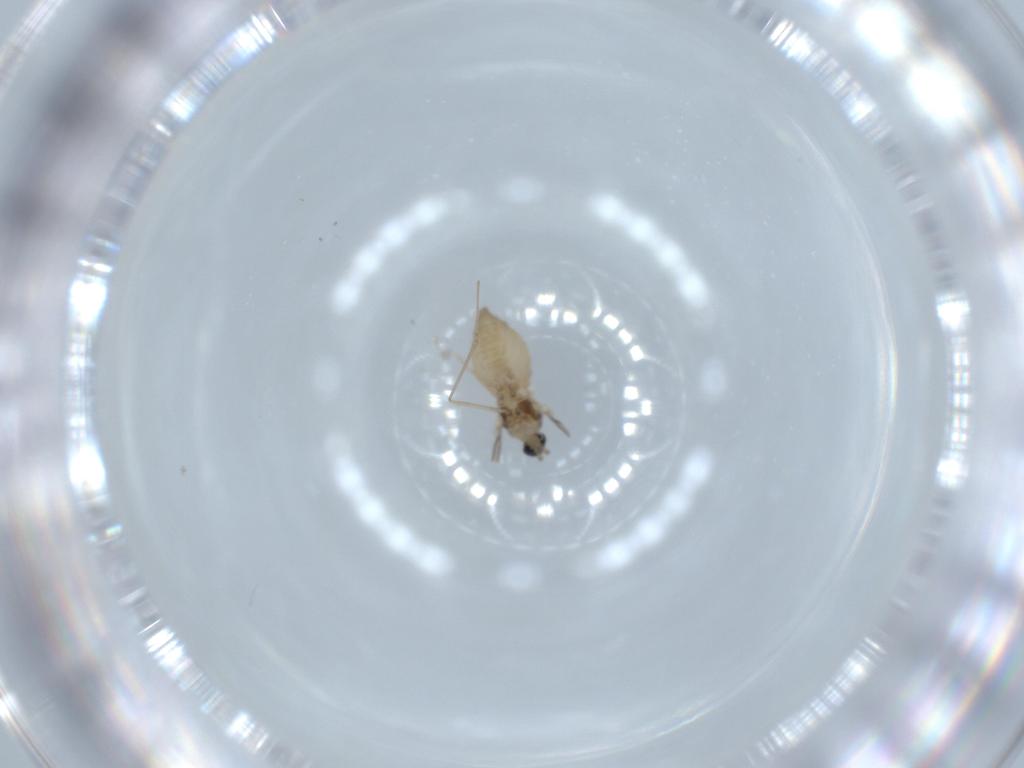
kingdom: Animalia
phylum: Arthropoda
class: Insecta
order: Diptera
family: Cecidomyiidae
